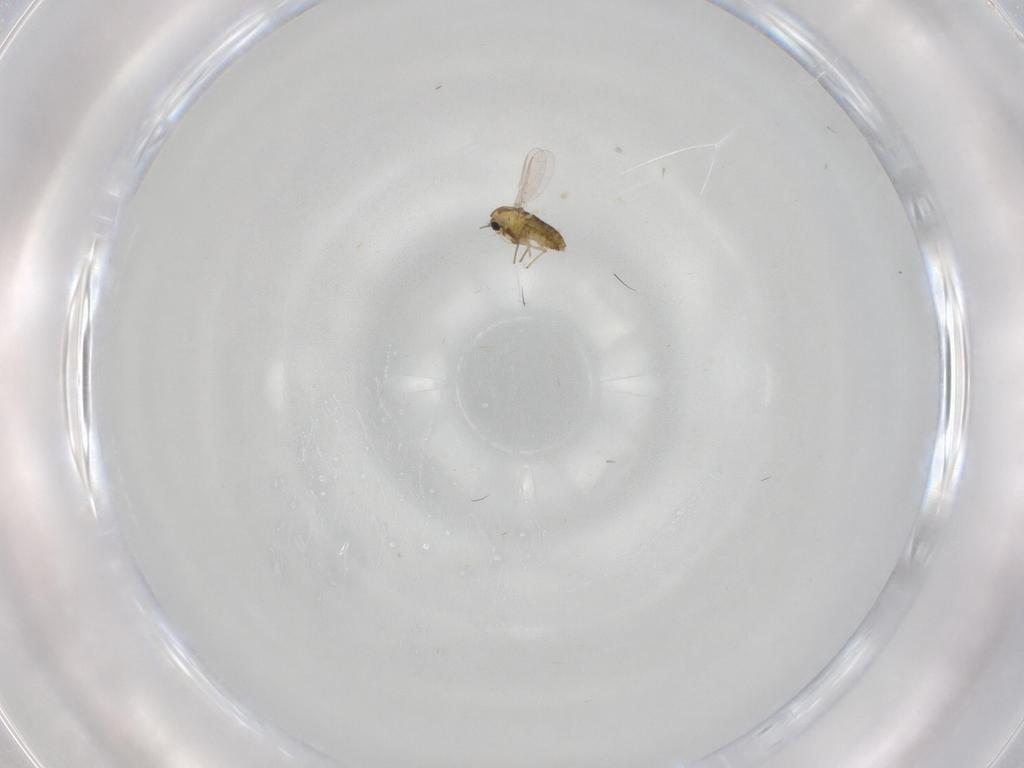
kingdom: Animalia
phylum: Arthropoda
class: Insecta
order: Diptera
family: Chironomidae
